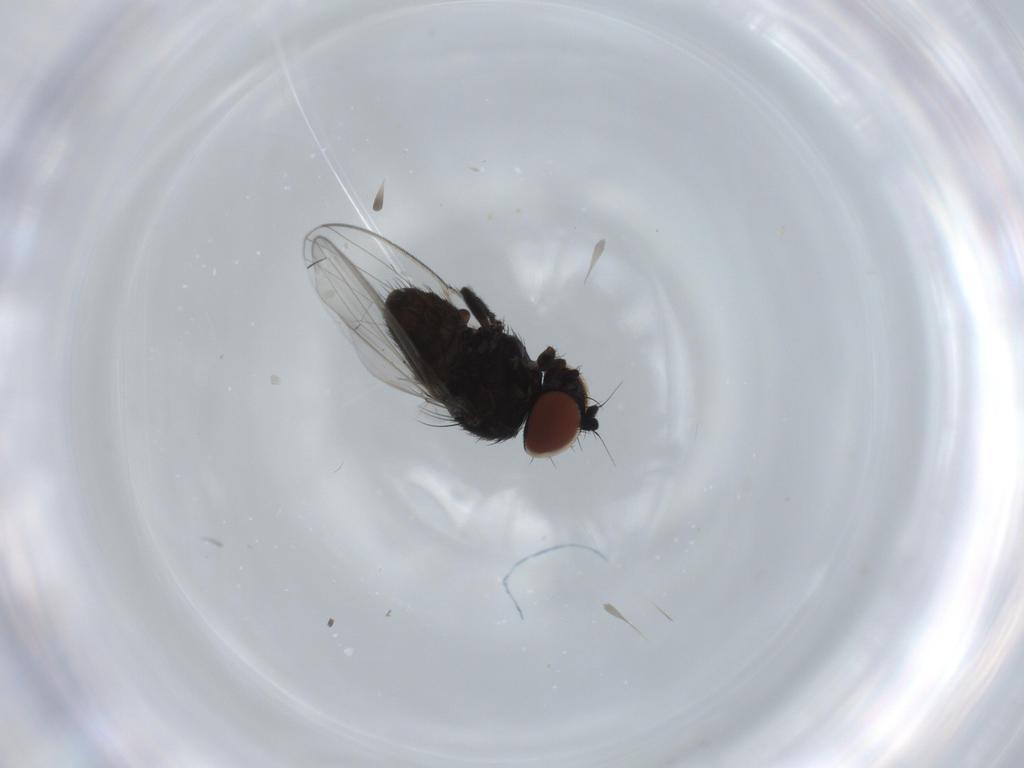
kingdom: Animalia
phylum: Arthropoda
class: Insecta
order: Diptera
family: Milichiidae
